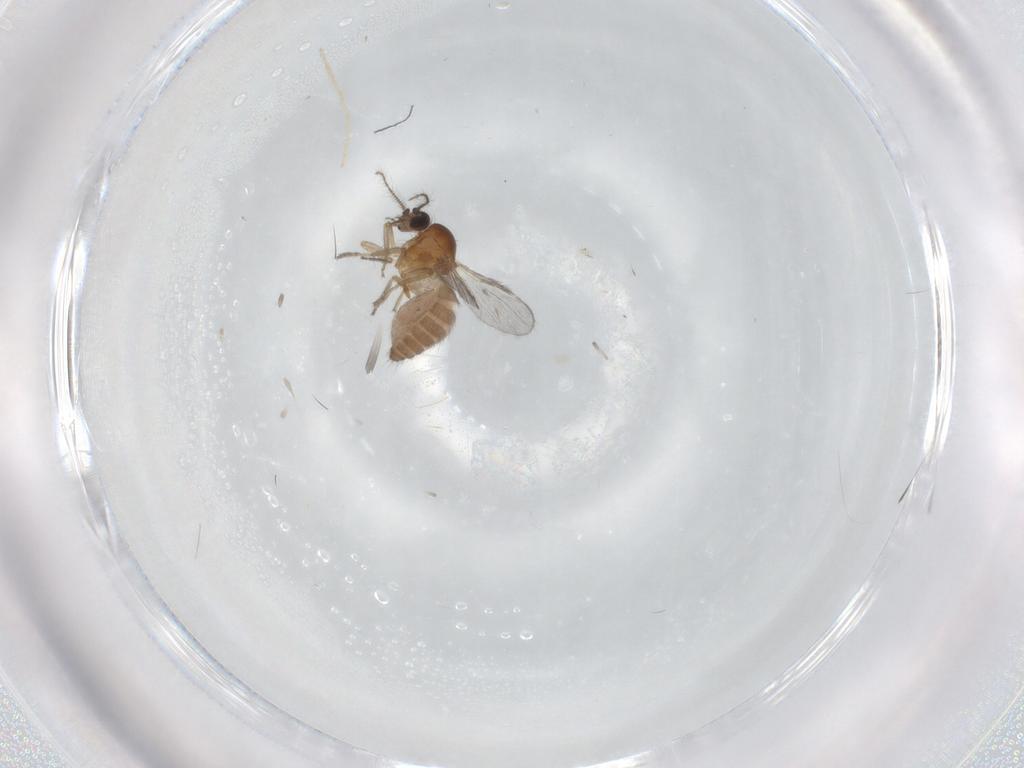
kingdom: Animalia
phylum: Arthropoda
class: Insecta
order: Diptera
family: Ceratopogonidae
